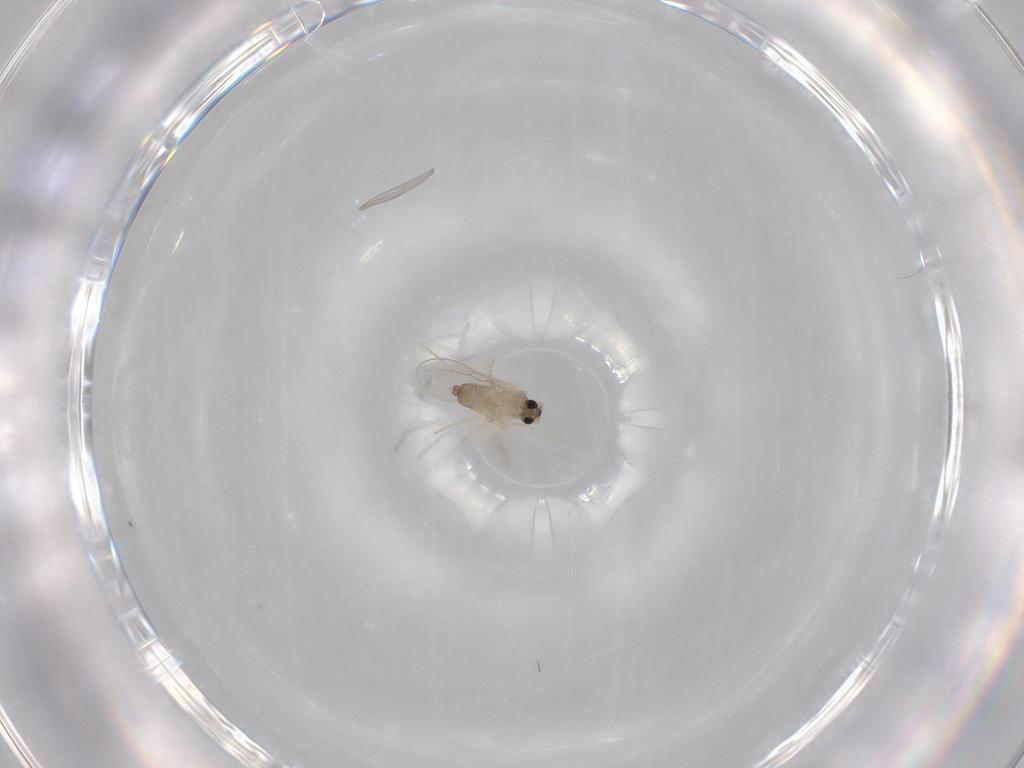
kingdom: Animalia
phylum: Arthropoda
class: Insecta
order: Diptera
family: Cecidomyiidae
